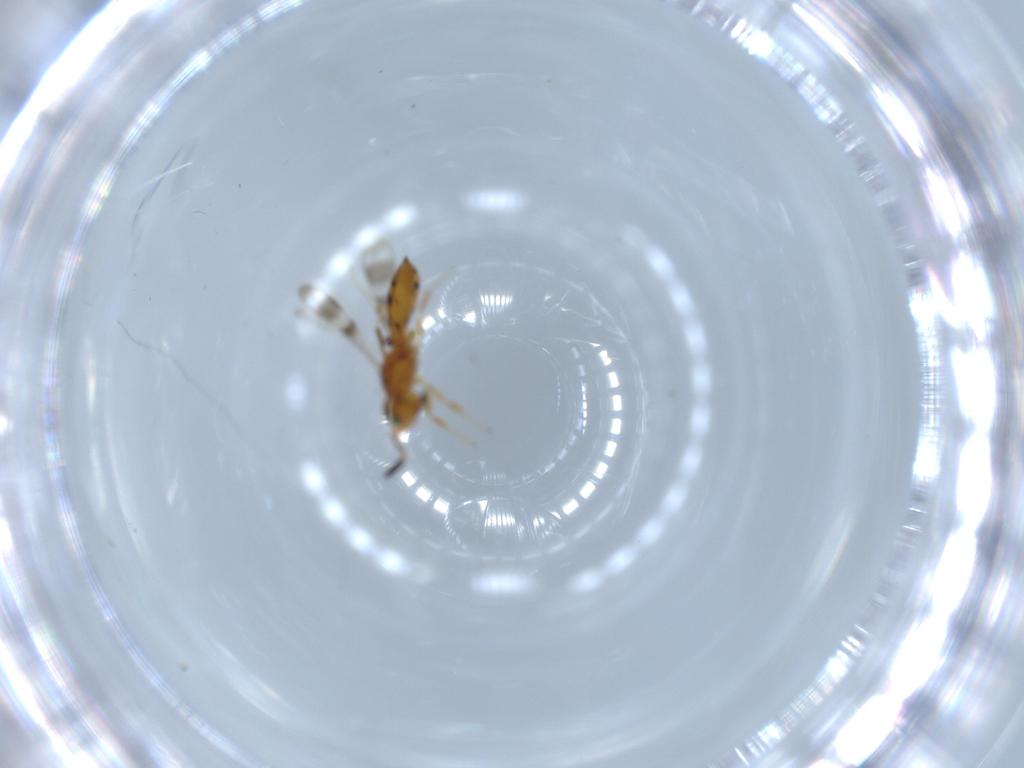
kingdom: Animalia
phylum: Arthropoda
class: Insecta
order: Hymenoptera
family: Scelionidae
